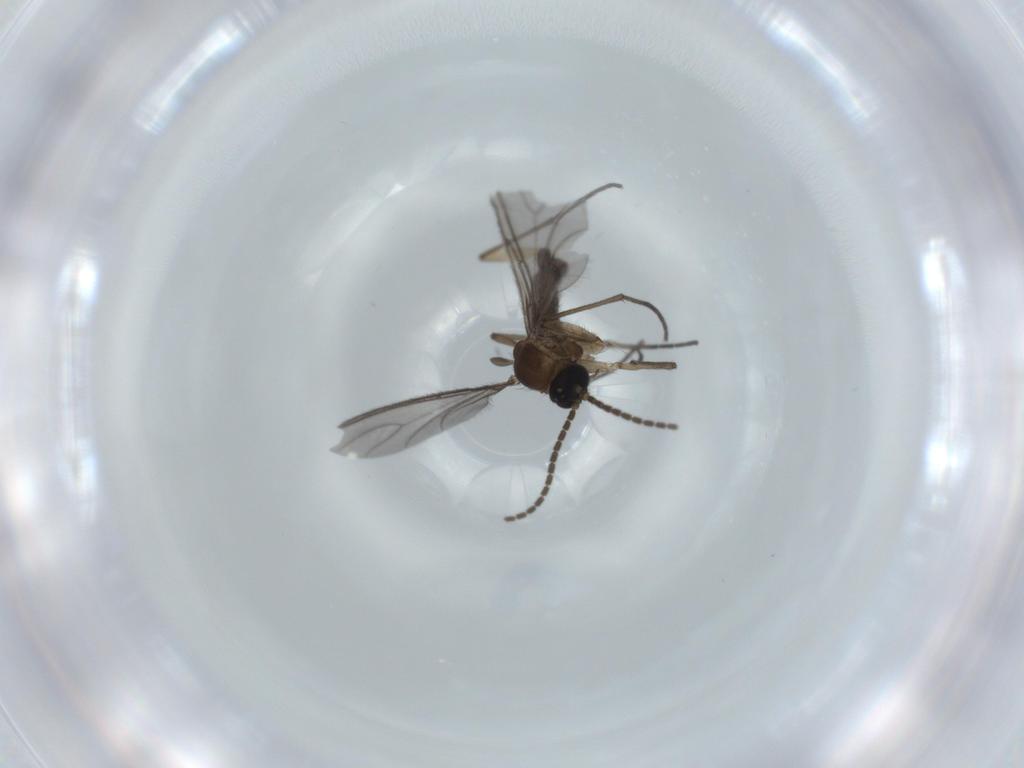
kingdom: Animalia
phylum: Arthropoda
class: Insecta
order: Diptera
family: Sciaridae
